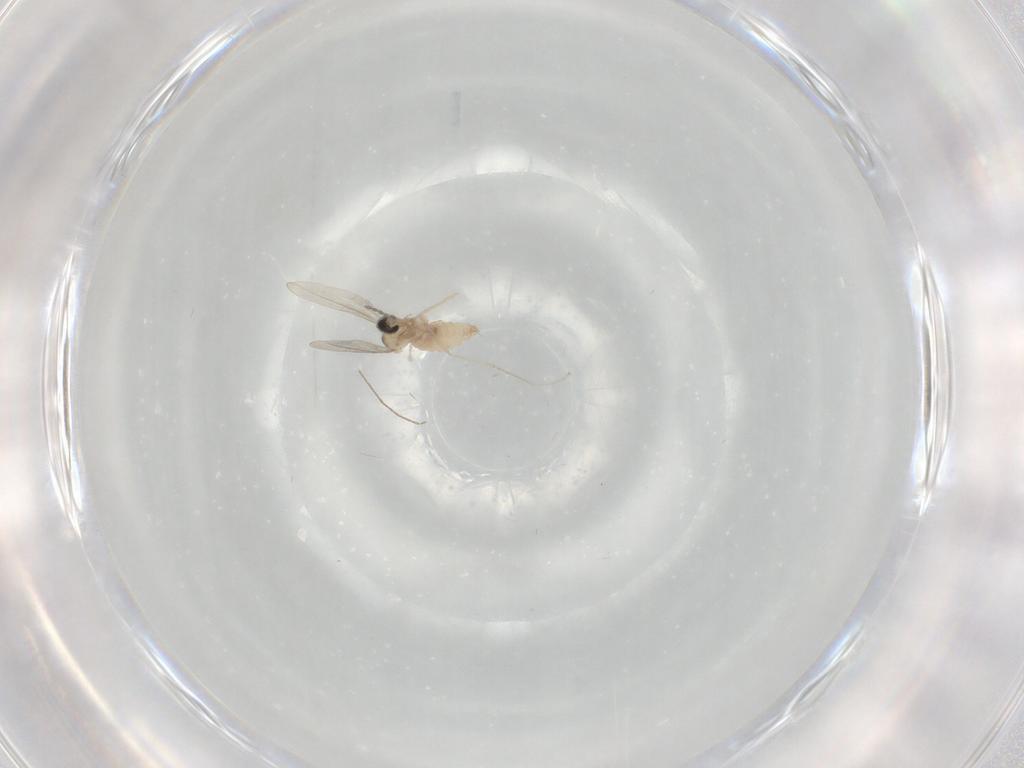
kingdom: Animalia
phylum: Arthropoda
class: Insecta
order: Diptera
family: Cecidomyiidae
